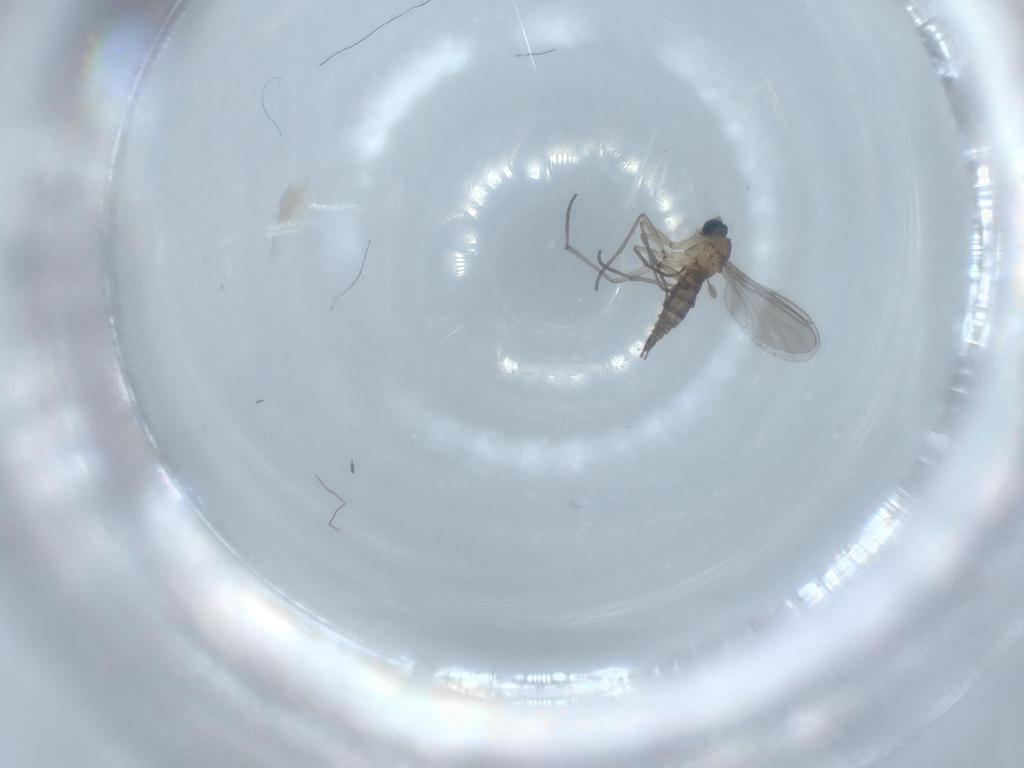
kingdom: Animalia
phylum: Arthropoda
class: Insecta
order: Diptera
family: Sciaridae
